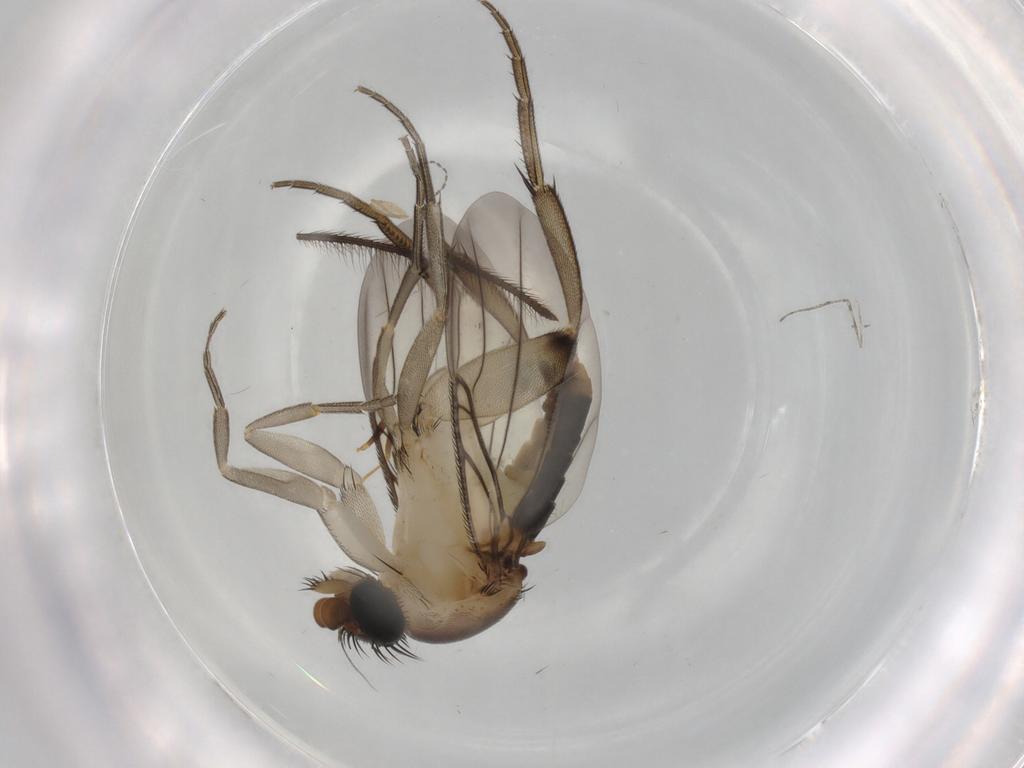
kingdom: Animalia
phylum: Arthropoda
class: Insecta
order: Diptera
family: Phoridae
